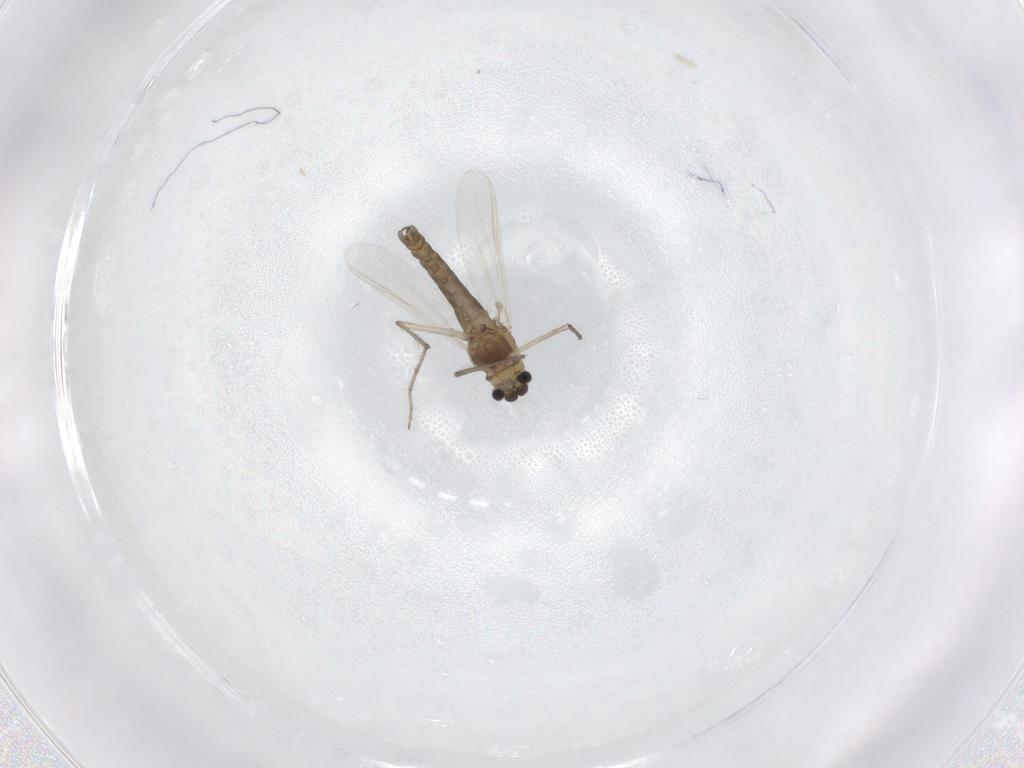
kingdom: Animalia
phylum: Arthropoda
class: Insecta
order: Diptera
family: Chironomidae
